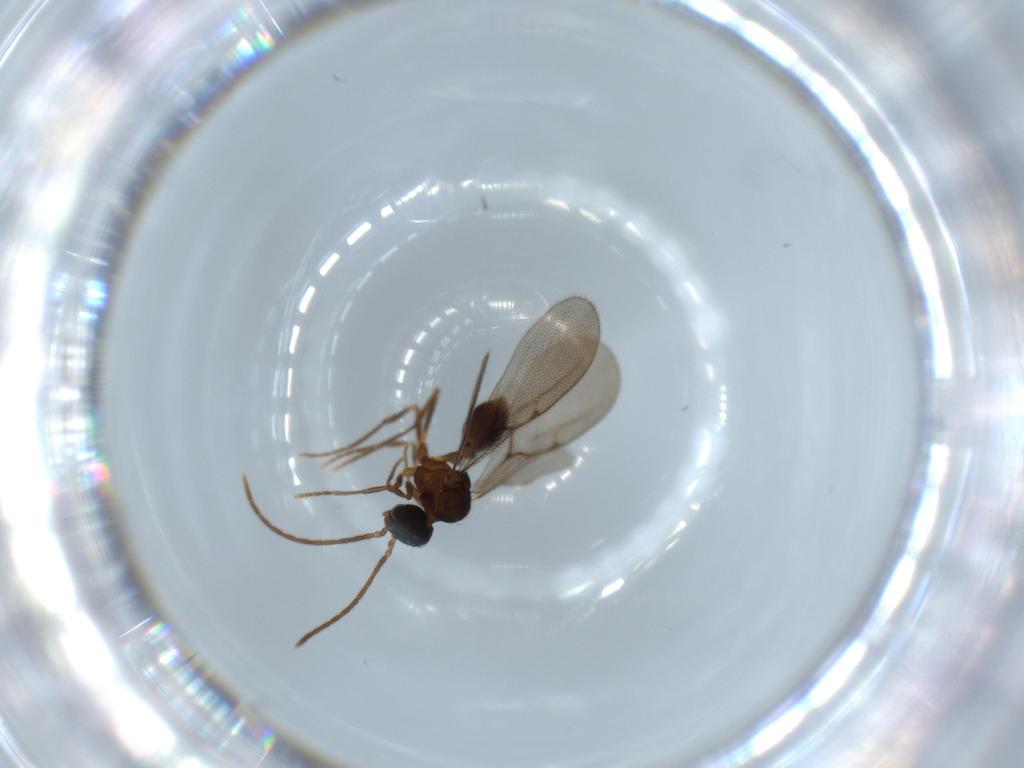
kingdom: Animalia
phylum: Arthropoda
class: Insecta
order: Hymenoptera
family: Formicidae
